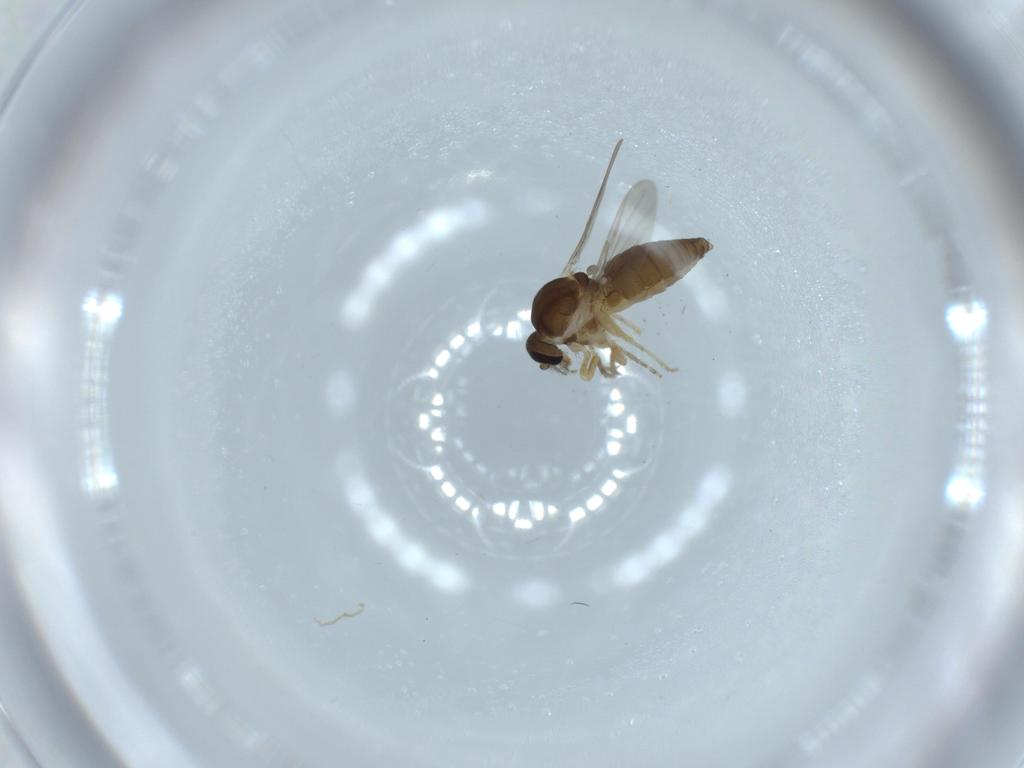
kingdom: Animalia
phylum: Arthropoda
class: Insecta
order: Diptera
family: Ceratopogonidae
